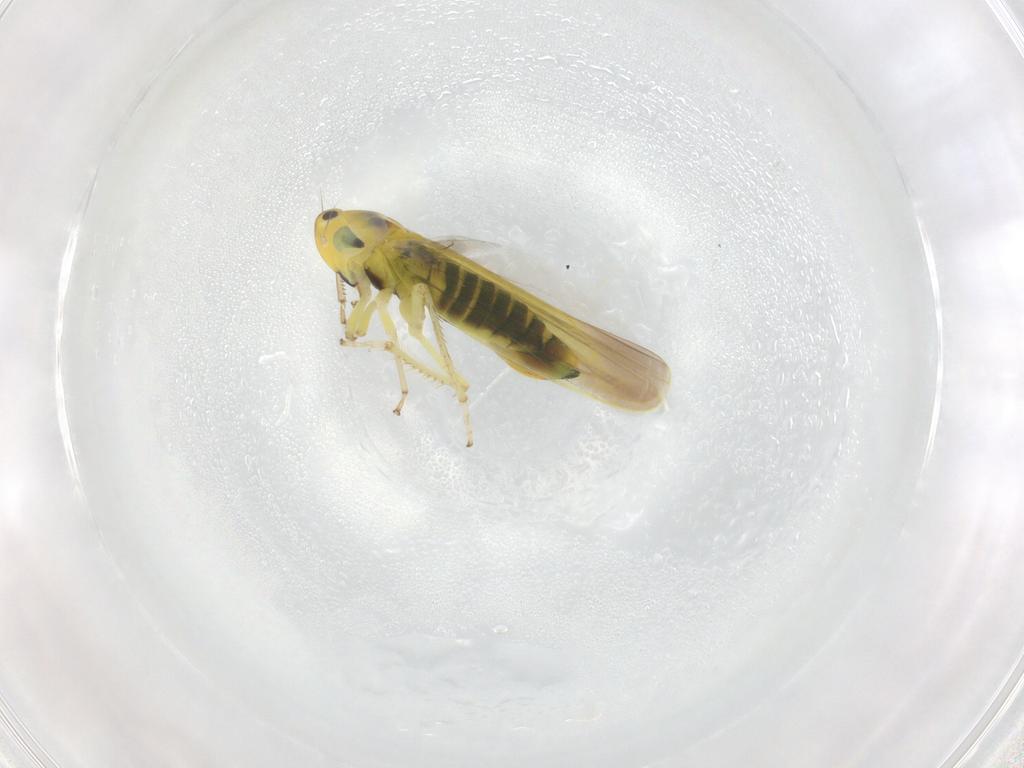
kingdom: Animalia
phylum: Arthropoda
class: Insecta
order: Hemiptera
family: Cicadellidae
